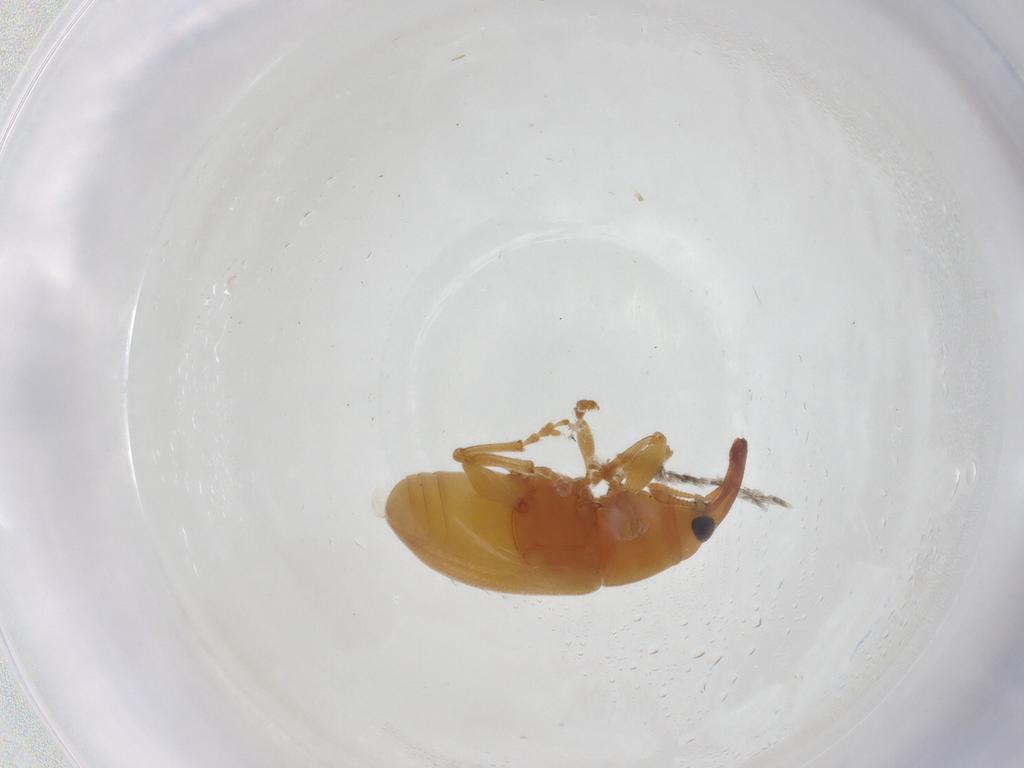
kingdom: Animalia
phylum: Arthropoda
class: Insecta
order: Coleoptera
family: Curculionidae
